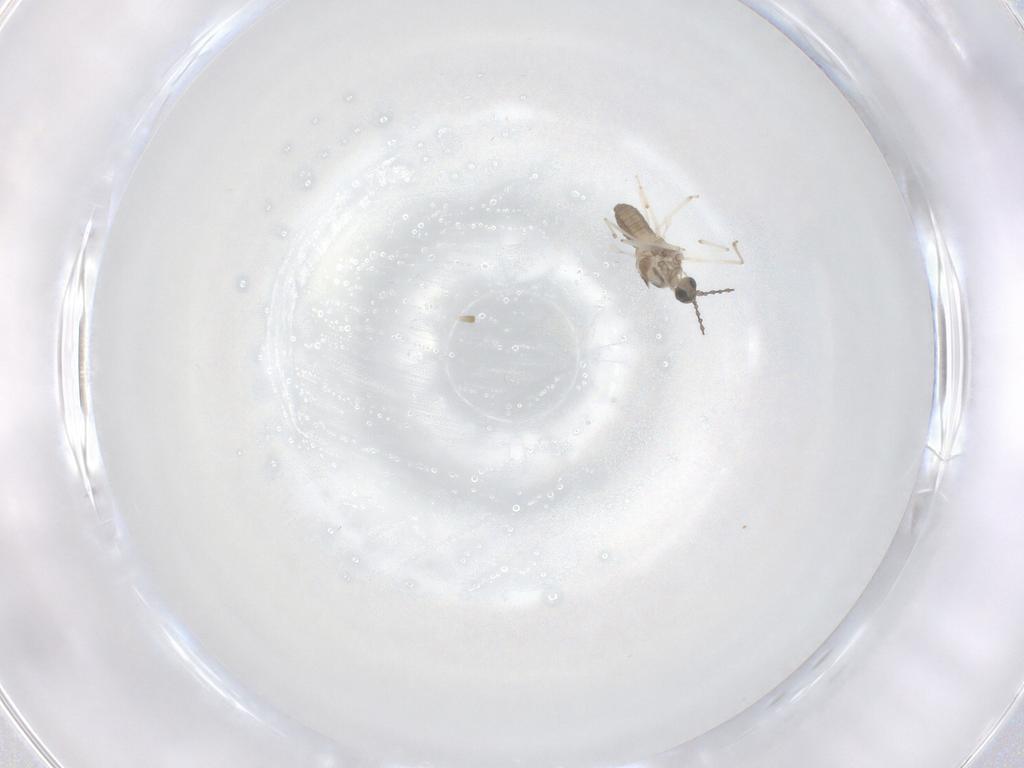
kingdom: Animalia
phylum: Arthropoda
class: Insecta
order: Diptera
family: Cecidomyiidae
